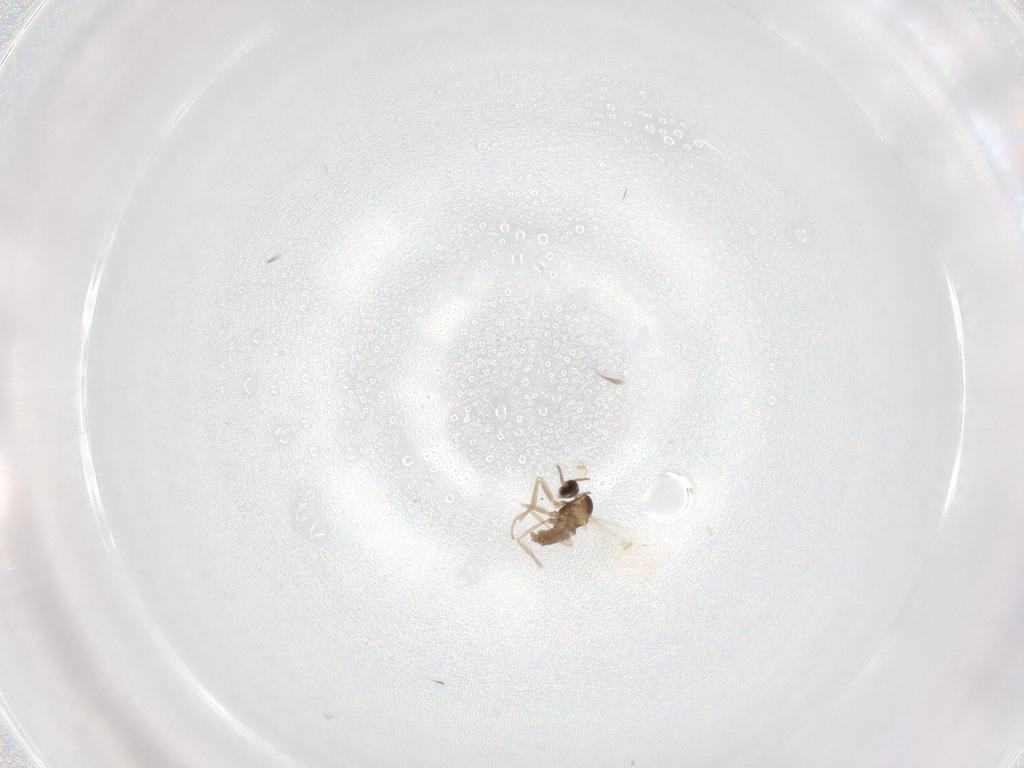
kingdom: Animalia
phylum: Arthropoda
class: Insecta
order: Diptera
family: Cecidomyiidae
